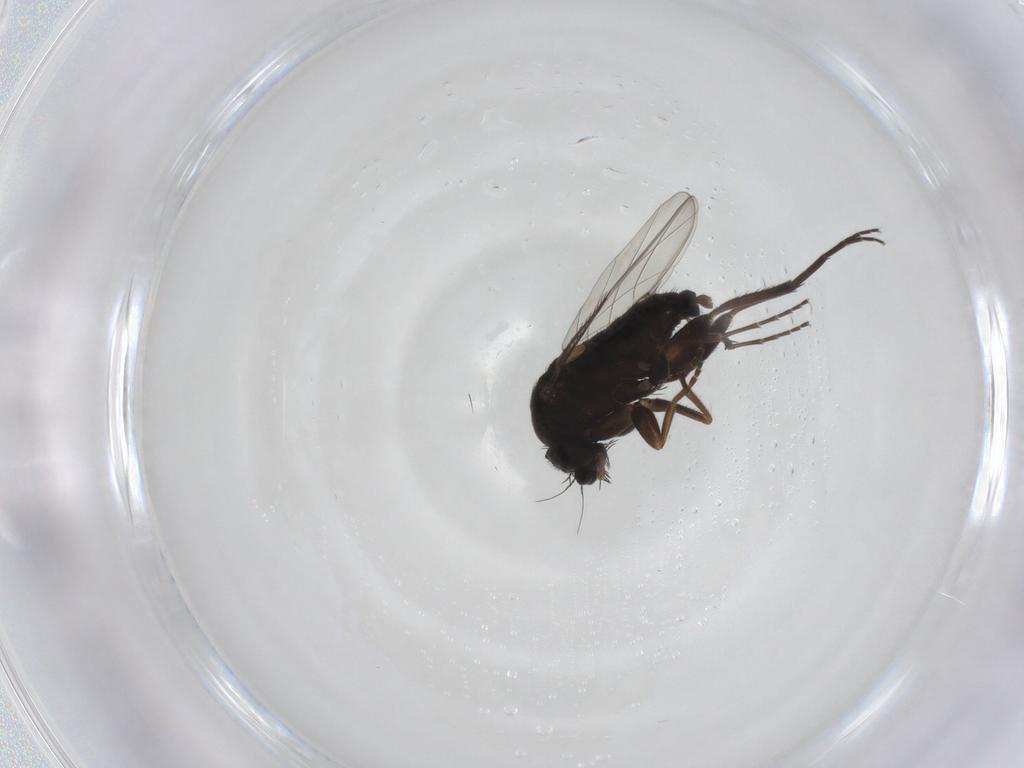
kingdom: Animalia
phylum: Arthropoda
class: Insecta
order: Diptera
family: Phoridae
